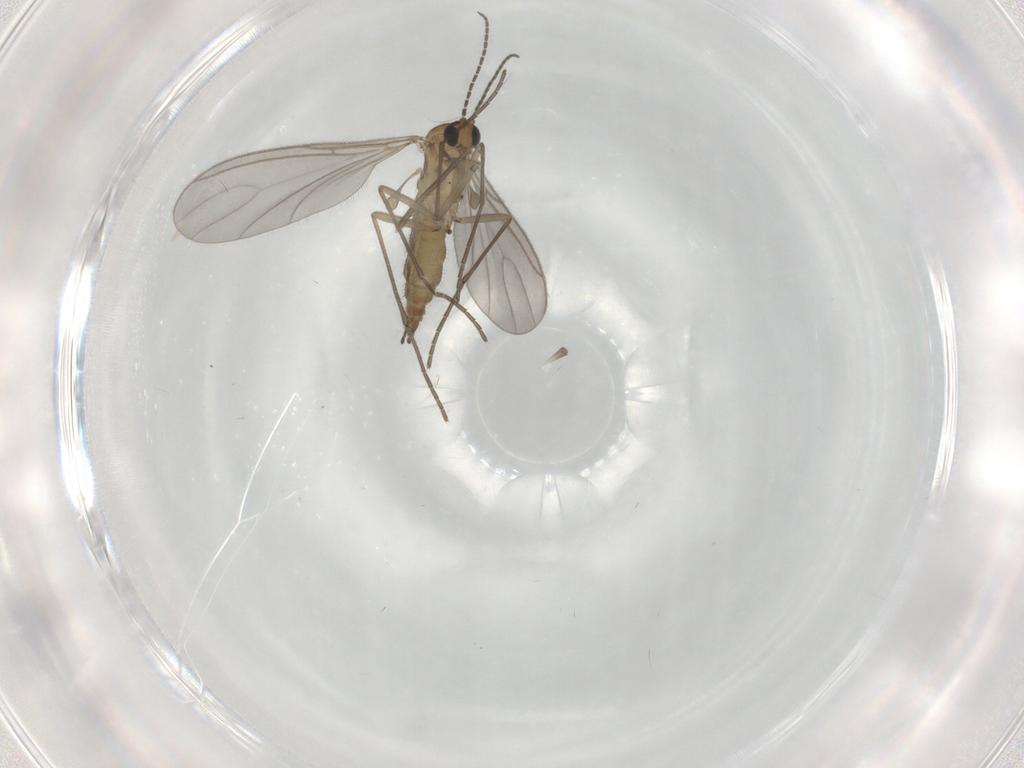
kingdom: Animalia
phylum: Arthropoda
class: Insecta
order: Diptera
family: Sciaridae
